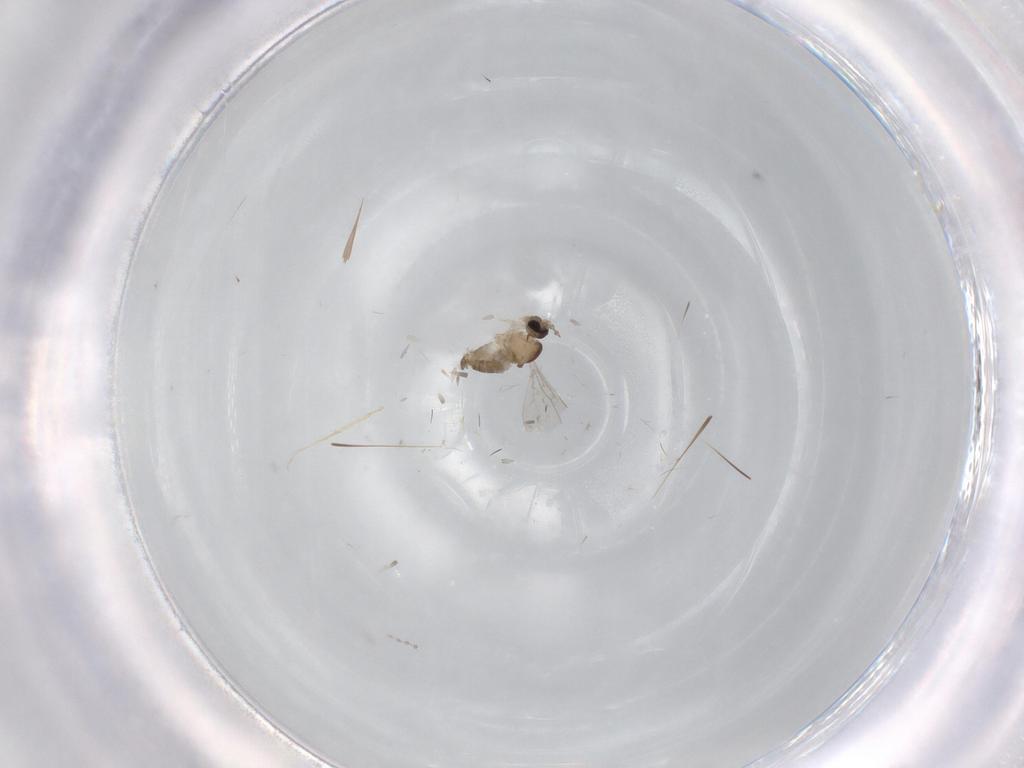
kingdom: Animalia
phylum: Arthropoda
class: Insecta
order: Diptera
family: Cecidomyiidae
